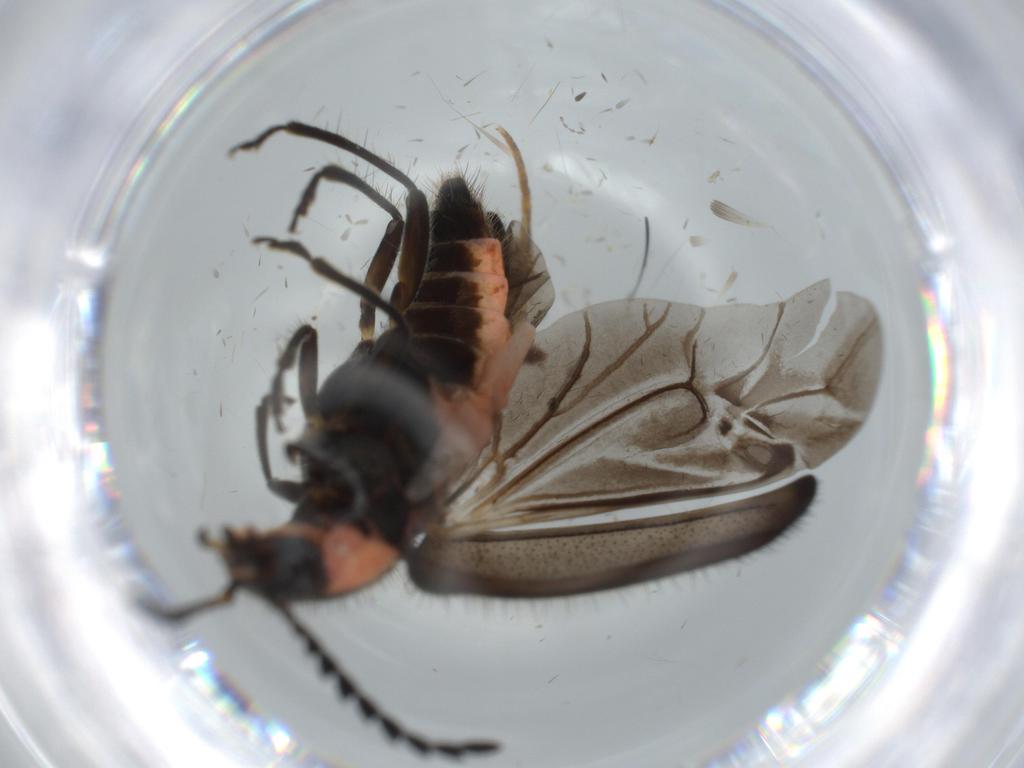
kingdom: Animalia
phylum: Arthropoda
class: Insecta
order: Coleoptera
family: Melyridae
